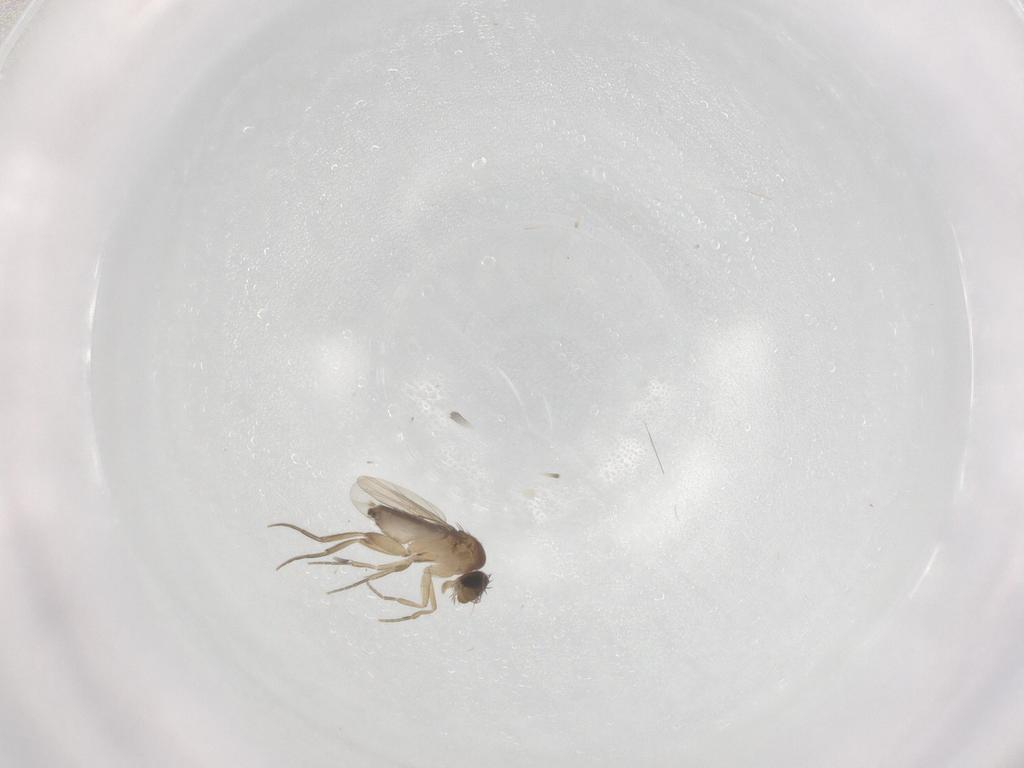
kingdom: Animalia
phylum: Arthropoda
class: Insecta
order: Diptera
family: Phoridae
